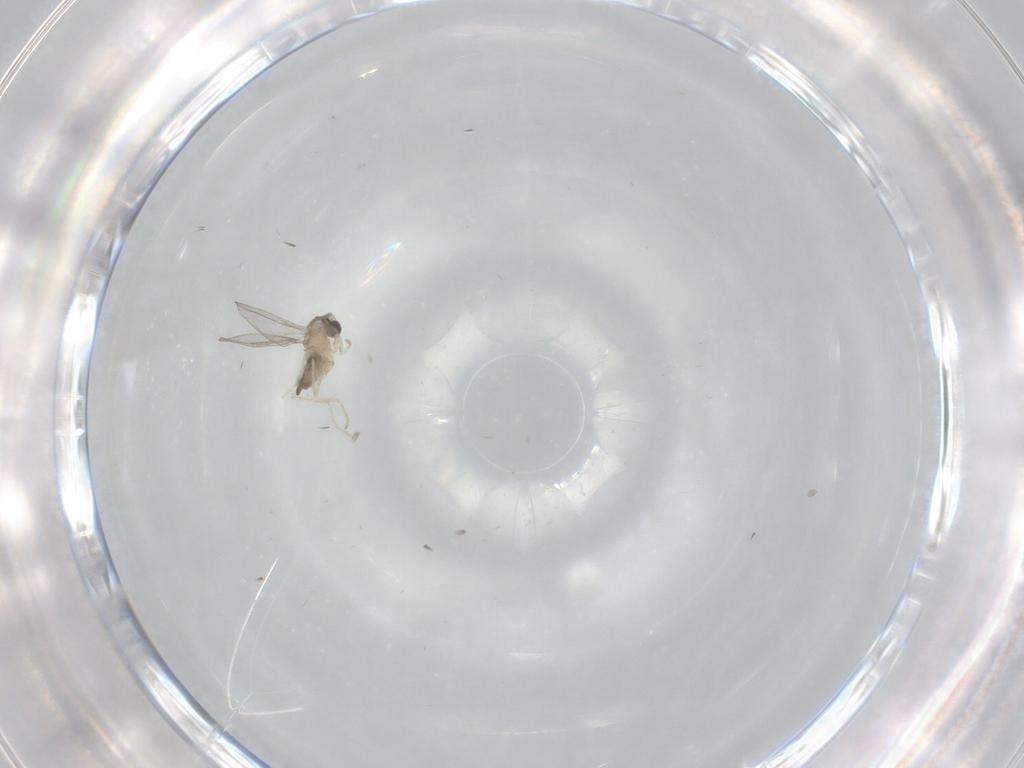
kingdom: Animalia
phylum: Arthropoda
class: Insecta
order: Diptera
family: Cecidomyiidae
